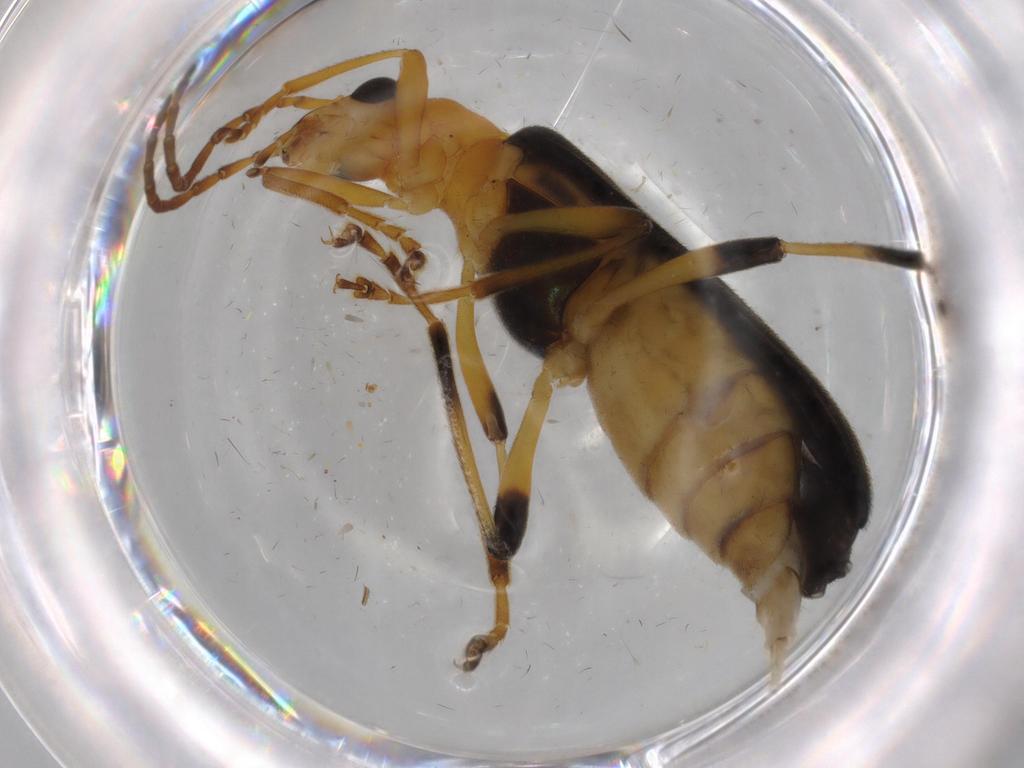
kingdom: Animalia
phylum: Arthropoda
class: Insecta
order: Coleoptera
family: Oedemeridae
